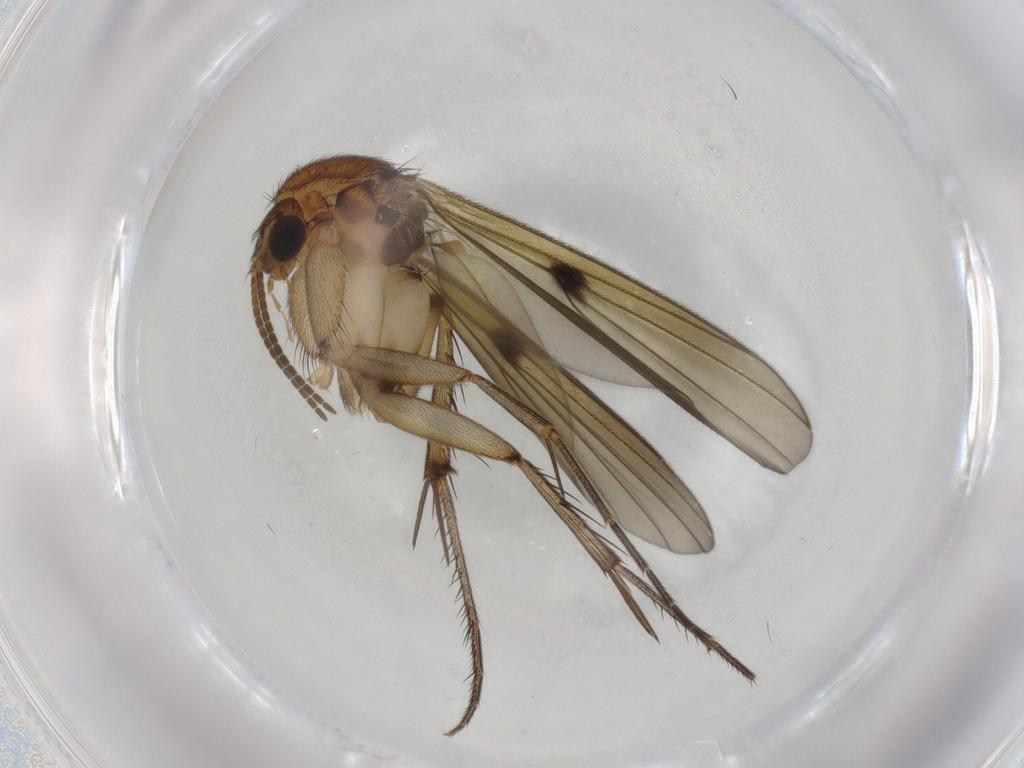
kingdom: Animalia
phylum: Arthropoda
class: Insecta
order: Diptera
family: Mycetophilidae
